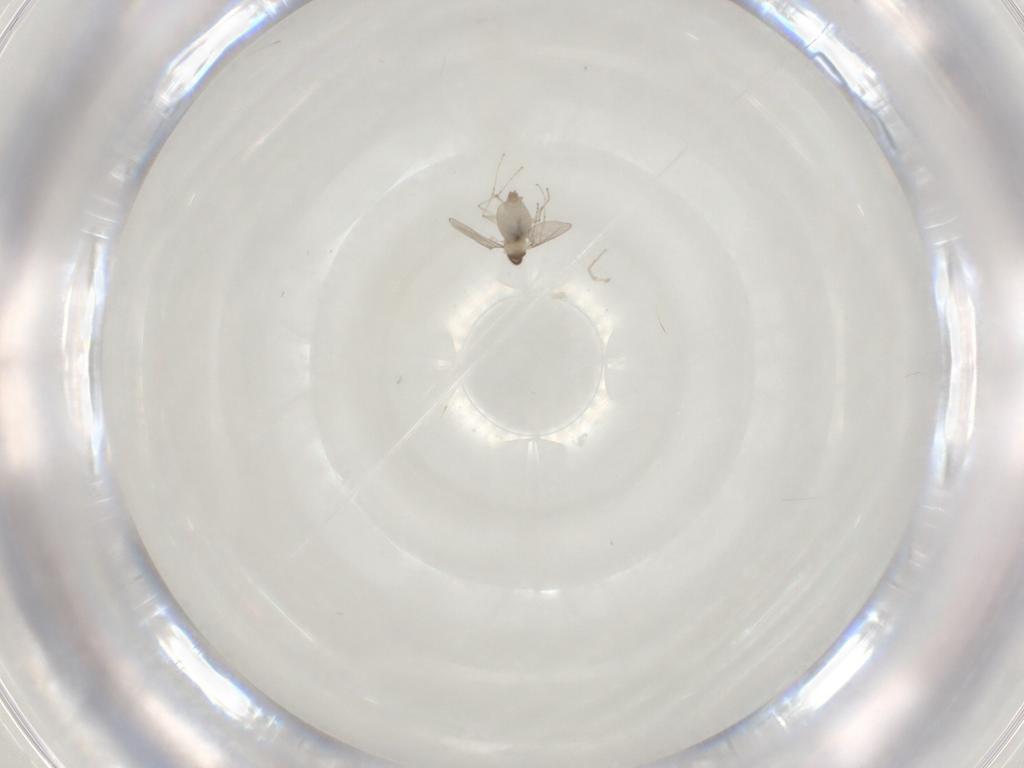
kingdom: Animalia
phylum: Arthropoda
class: Insecta
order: Diptera
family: Cecidomyiidae
